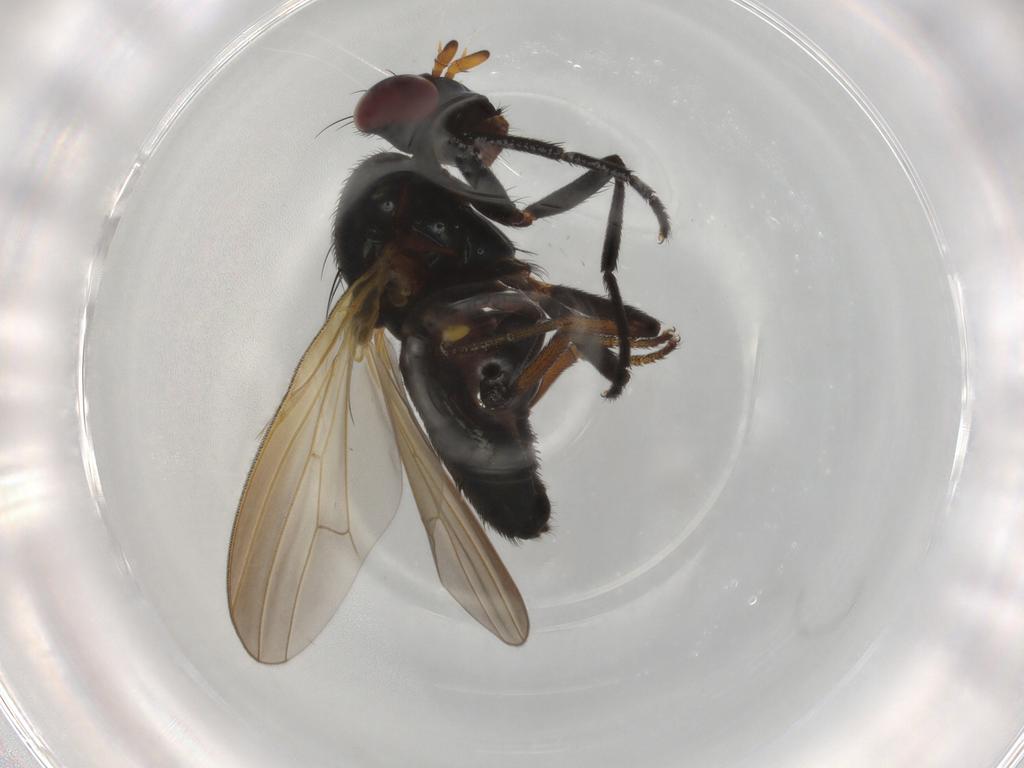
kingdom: Animalia
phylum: Arthropoda
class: Insecta
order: Diptera
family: Lauxaniidae
